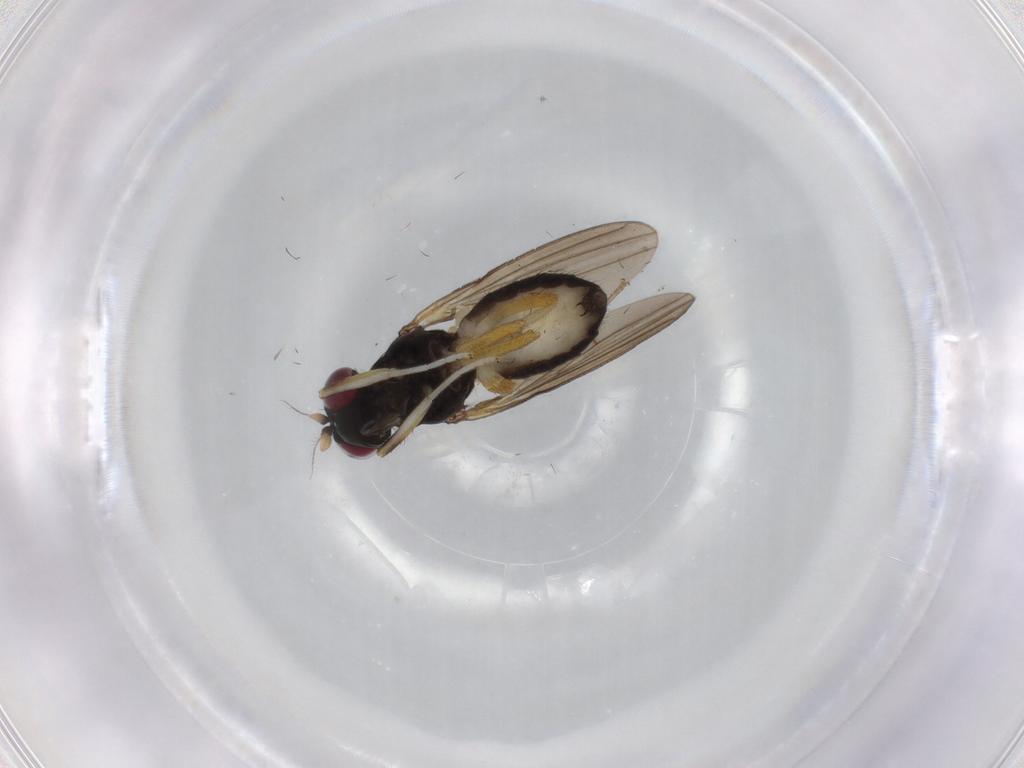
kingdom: Animalia
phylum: Arthropoda
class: Insecta
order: Diptera
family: Lauxaniidae
